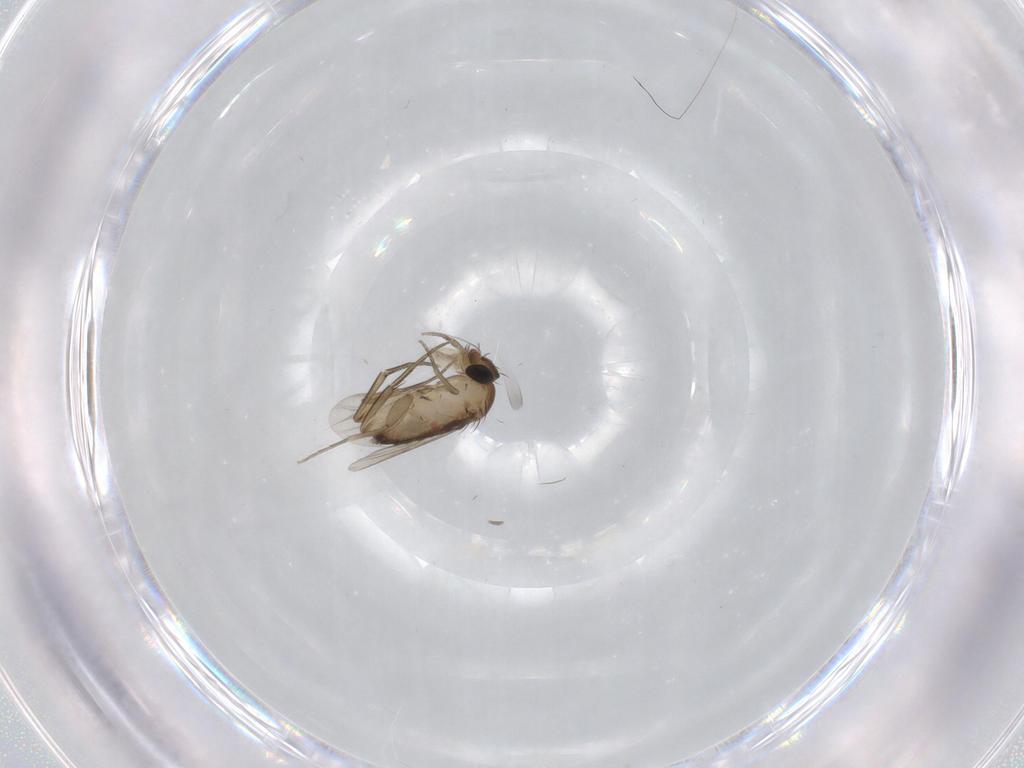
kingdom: Animalia
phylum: Arthropoda
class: Insecta
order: Diptera
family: Phoridae
